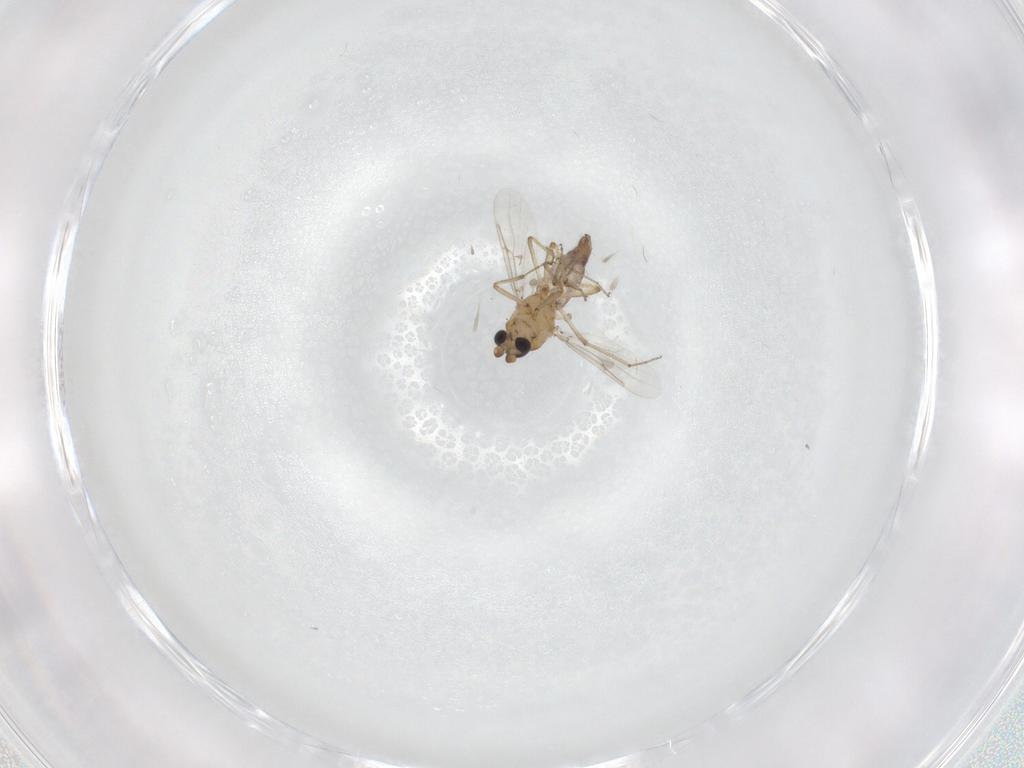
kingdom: Animalia
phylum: Arthropoda
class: Insecta
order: Diptera
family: Ceratopogonidae
